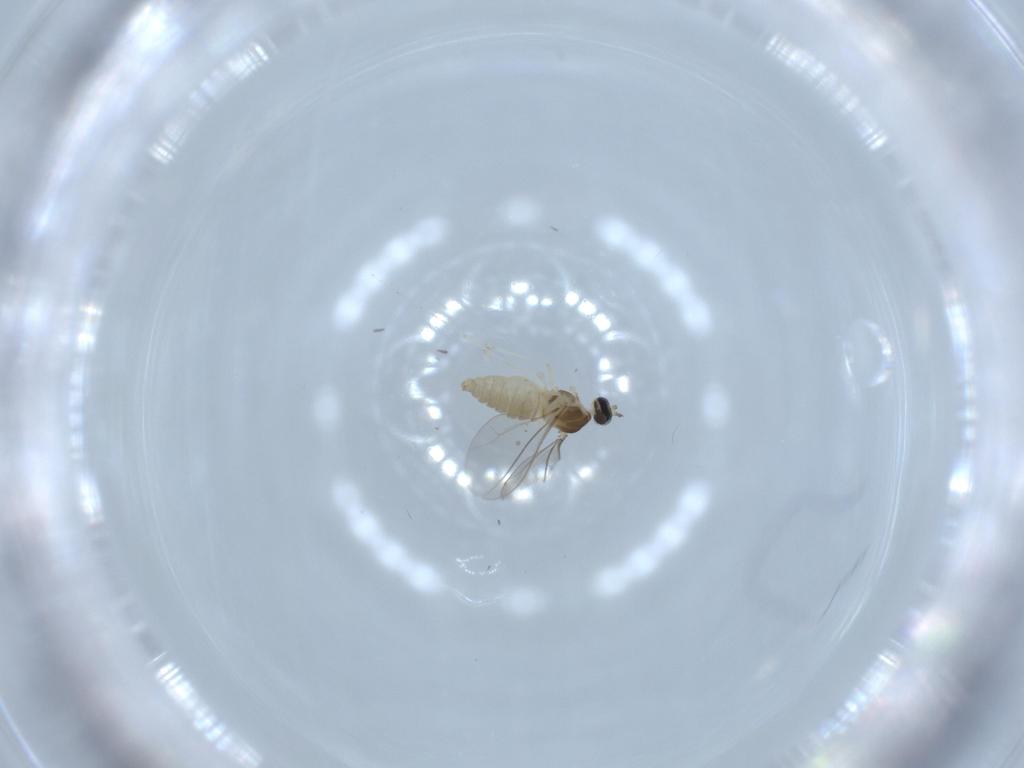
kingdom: Animalia
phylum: Arthropoda
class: Insecta
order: Diptera
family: Cecidomyiidae
